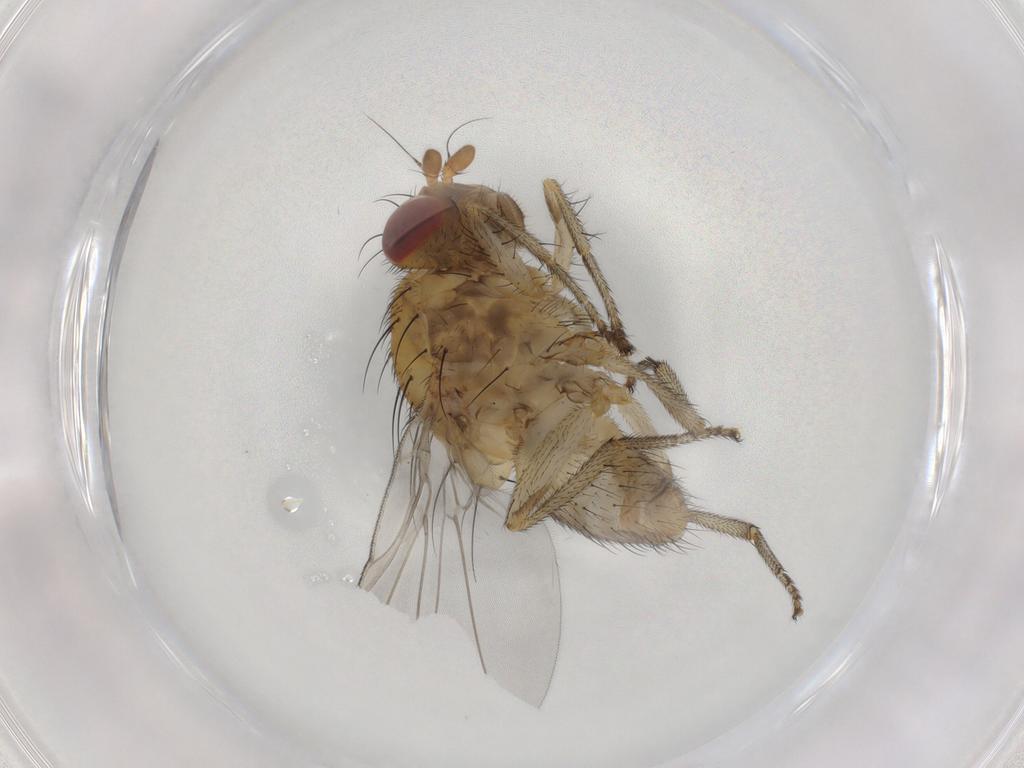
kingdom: Animalia
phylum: Arthropoda
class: Insecta
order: Diptera
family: Lauxaniidae
